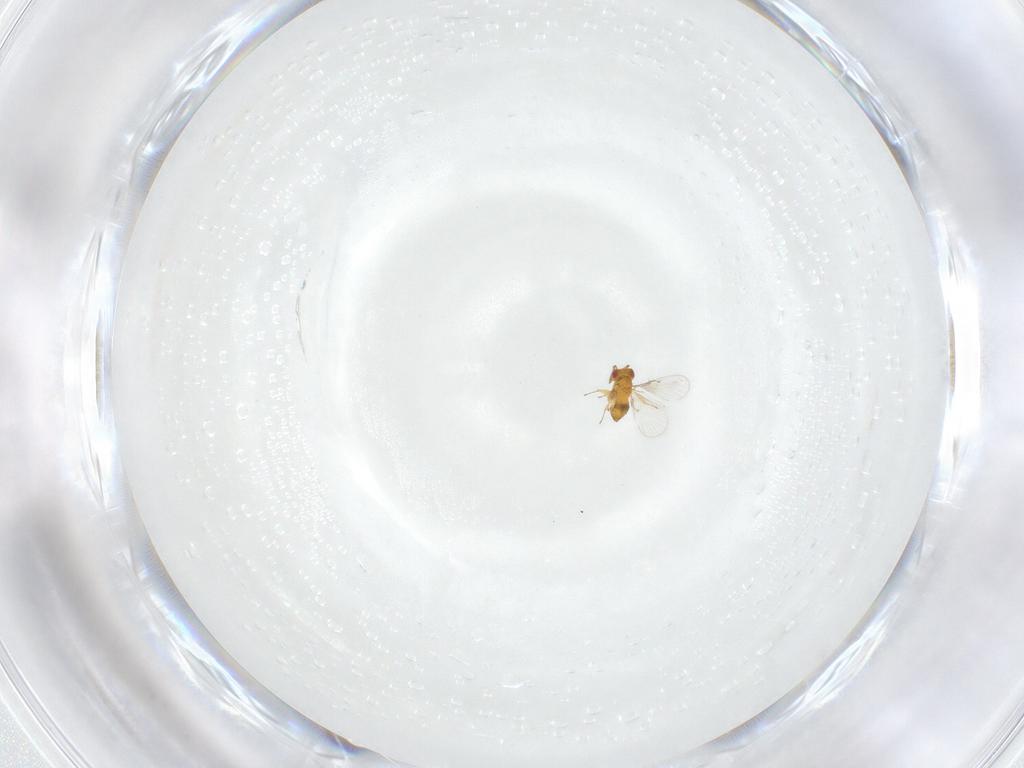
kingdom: Animalia
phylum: Arthropoda
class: Insecta
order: Hymenoptera
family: Trichogrammatidae
